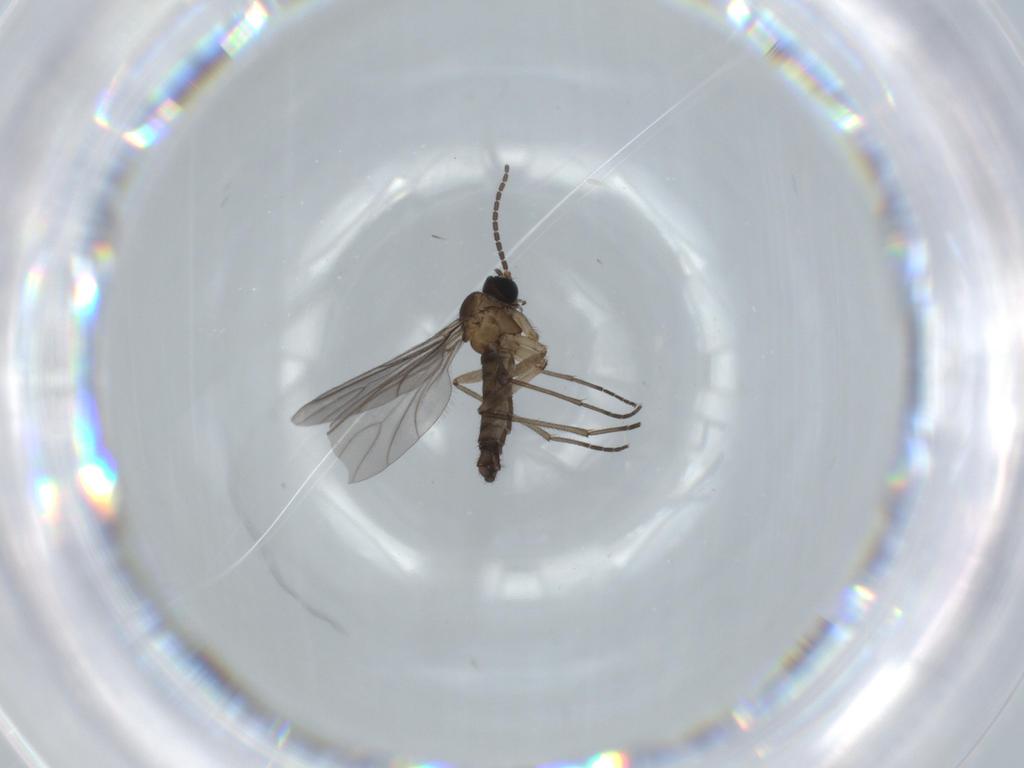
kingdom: Animalia
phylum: Arthropoda
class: Insecta
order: Diptera
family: Sciaridae
